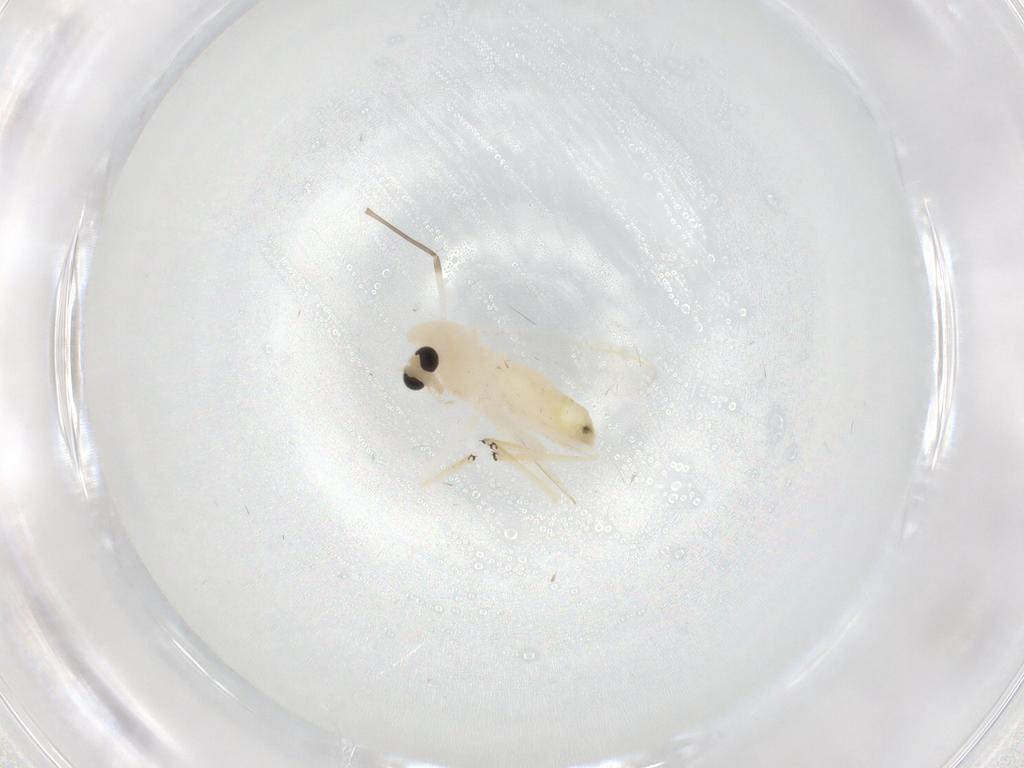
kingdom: Animalia
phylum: Arthropoda
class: Insecta
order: Diptera
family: Chironomidae
